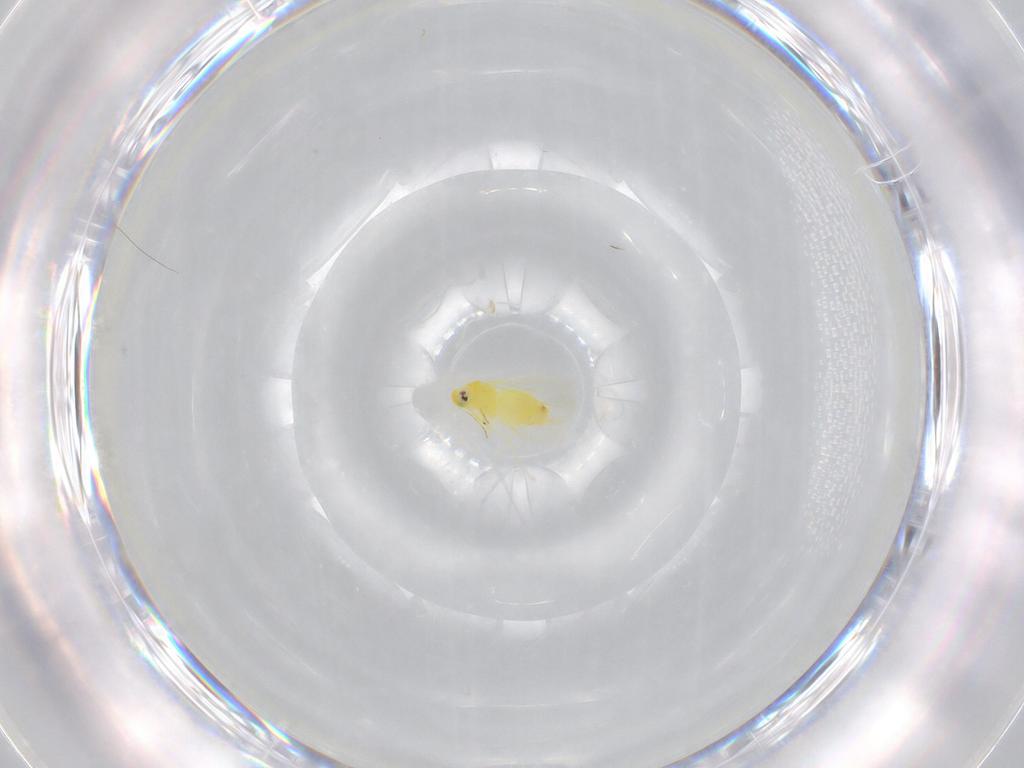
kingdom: Animalia
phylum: Arthropoda
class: Insecta
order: Hemiptera
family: Aleyrodidae
